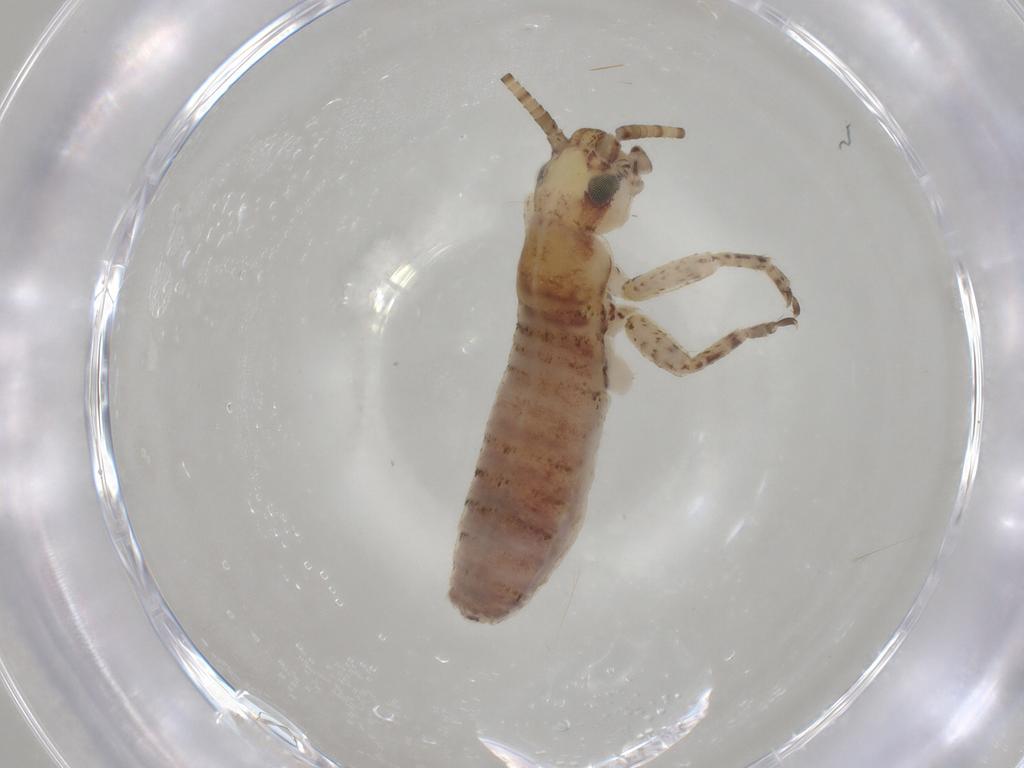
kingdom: Animalia
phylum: Arthropoda
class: Insecta
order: Orthoptera
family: Mogoplistidae
